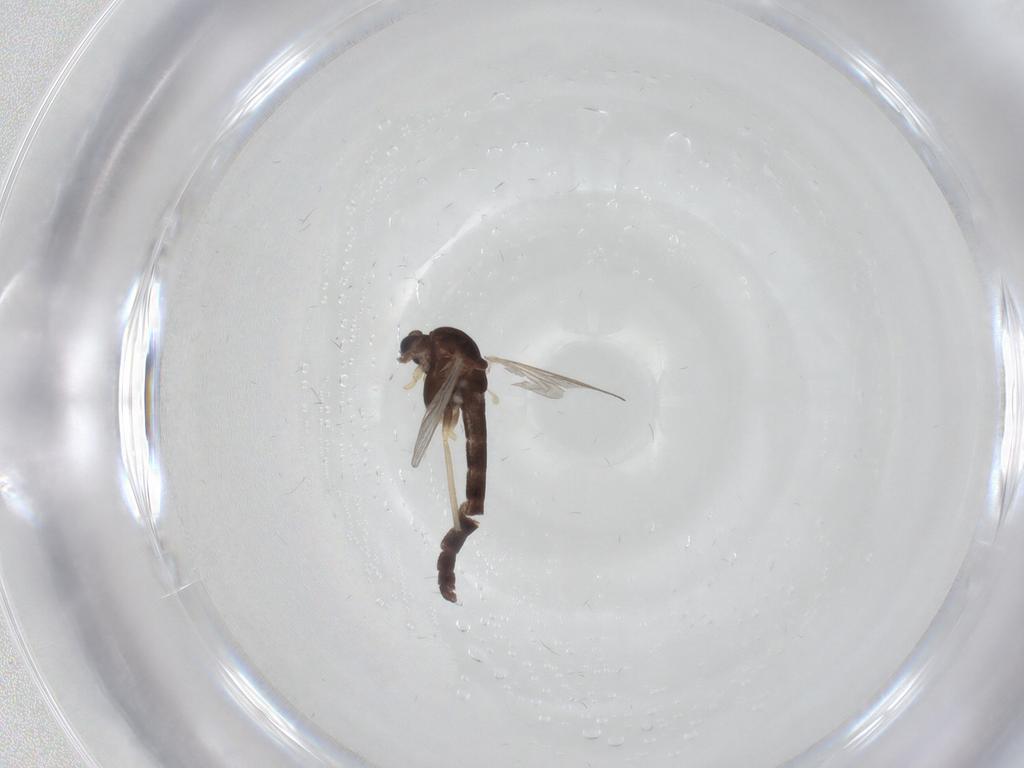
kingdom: Animalia
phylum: Arthropoda
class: Insecta
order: Diptera
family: Chironomidae
